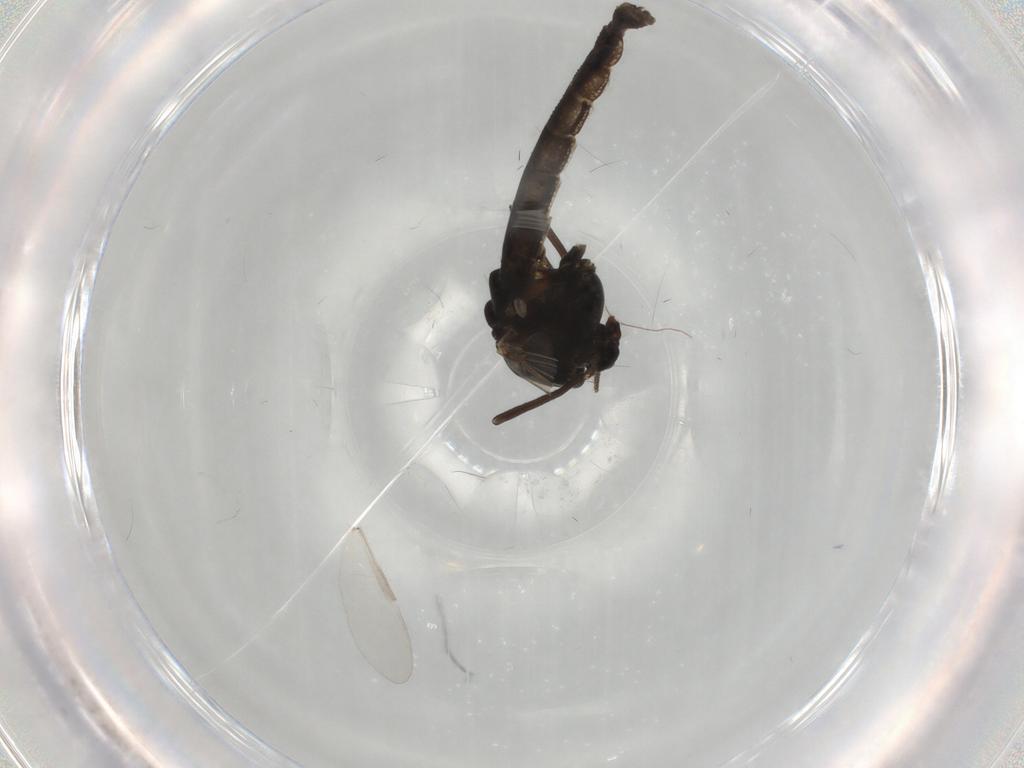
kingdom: Animalia
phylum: Arthropoda
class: Insecta
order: Diptera
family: Chironomidae
